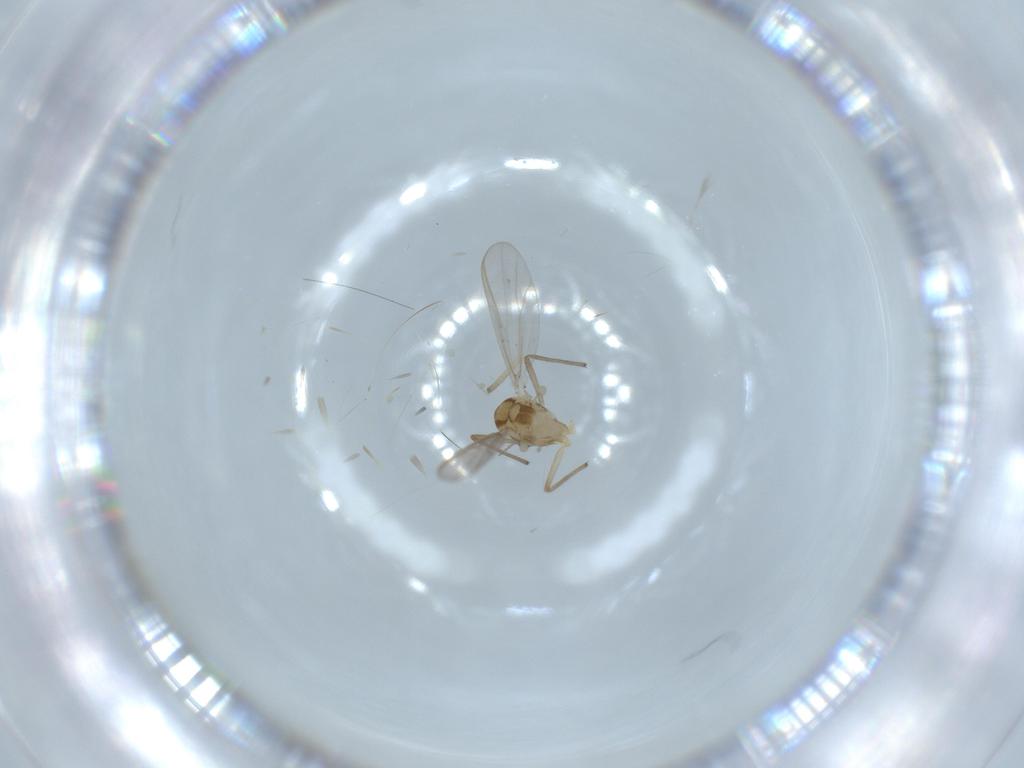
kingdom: Animalia
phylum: Arthropoda
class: Insecta
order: Diptera
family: Chironomidae
